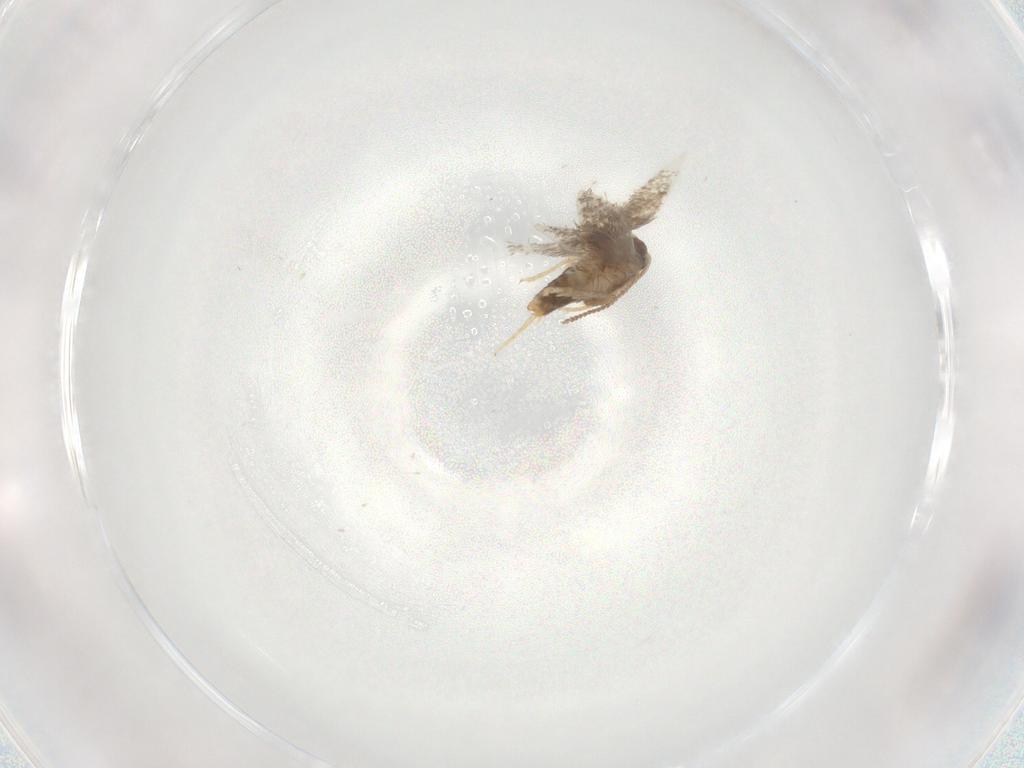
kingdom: Animalia
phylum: Arthropoda
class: Insecta
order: Lepidoptera
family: Nepticulidae
